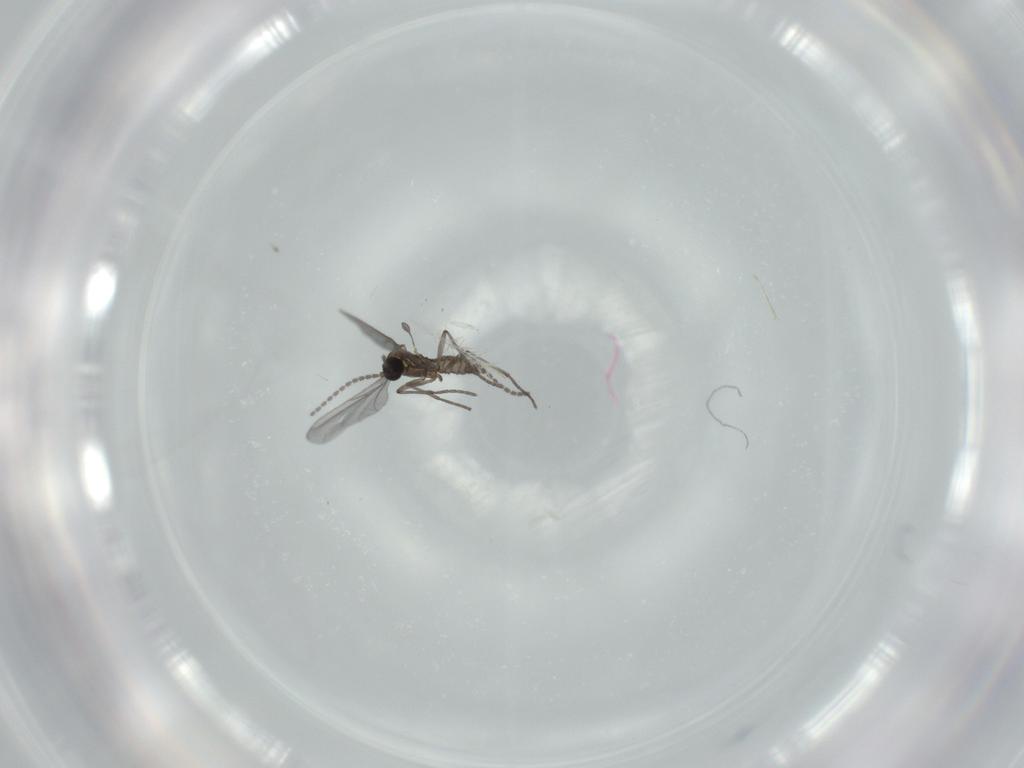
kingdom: Animalia
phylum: Arthropoda
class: Insecta
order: Diptera
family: Sciaridae
